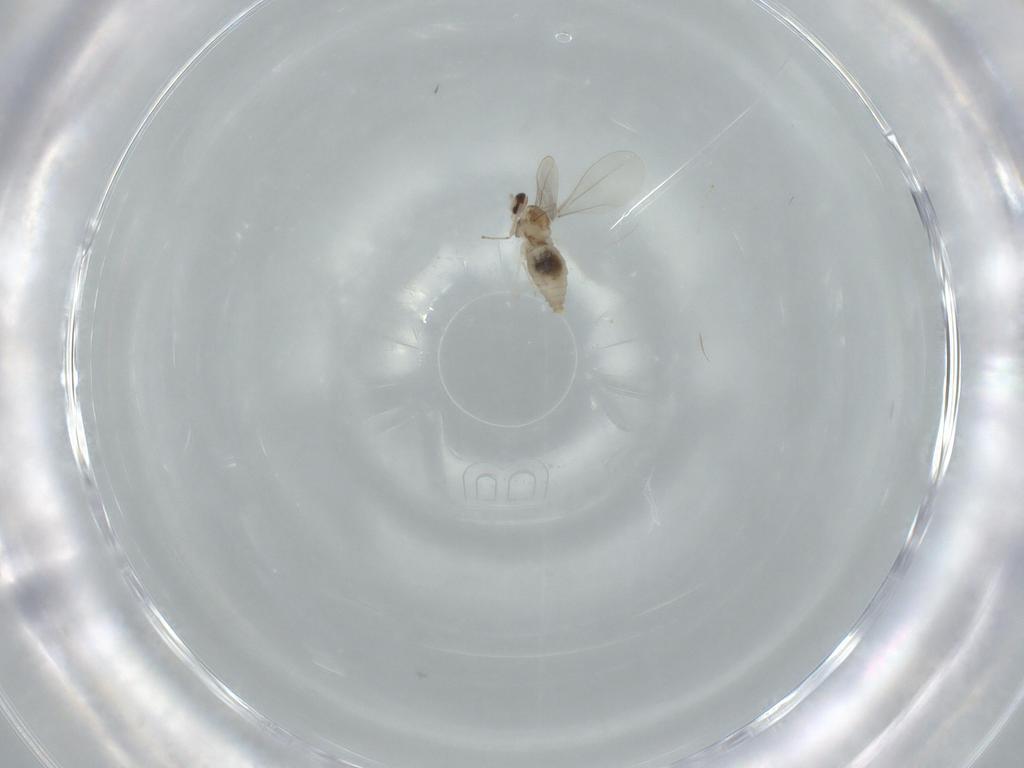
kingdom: Animalia
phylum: Arthropoda
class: Insecta
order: Diptera
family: Cecidomyiidae
